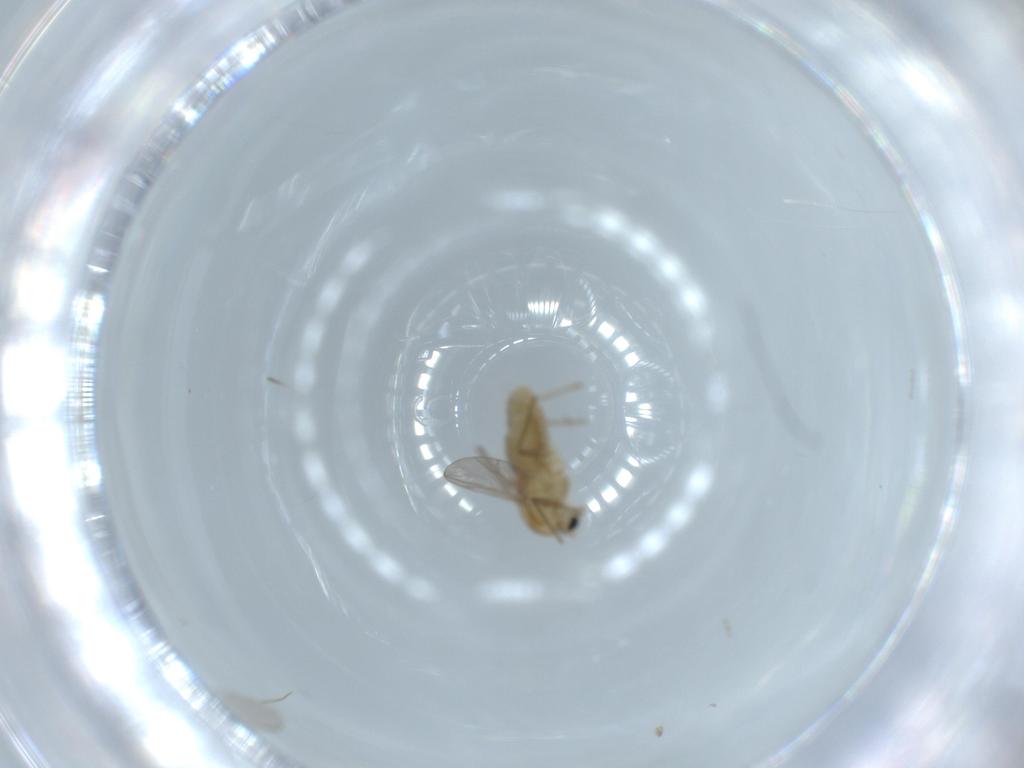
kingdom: Animalia
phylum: Arthropoda
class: Insecta
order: Diptera
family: Chironomidae
